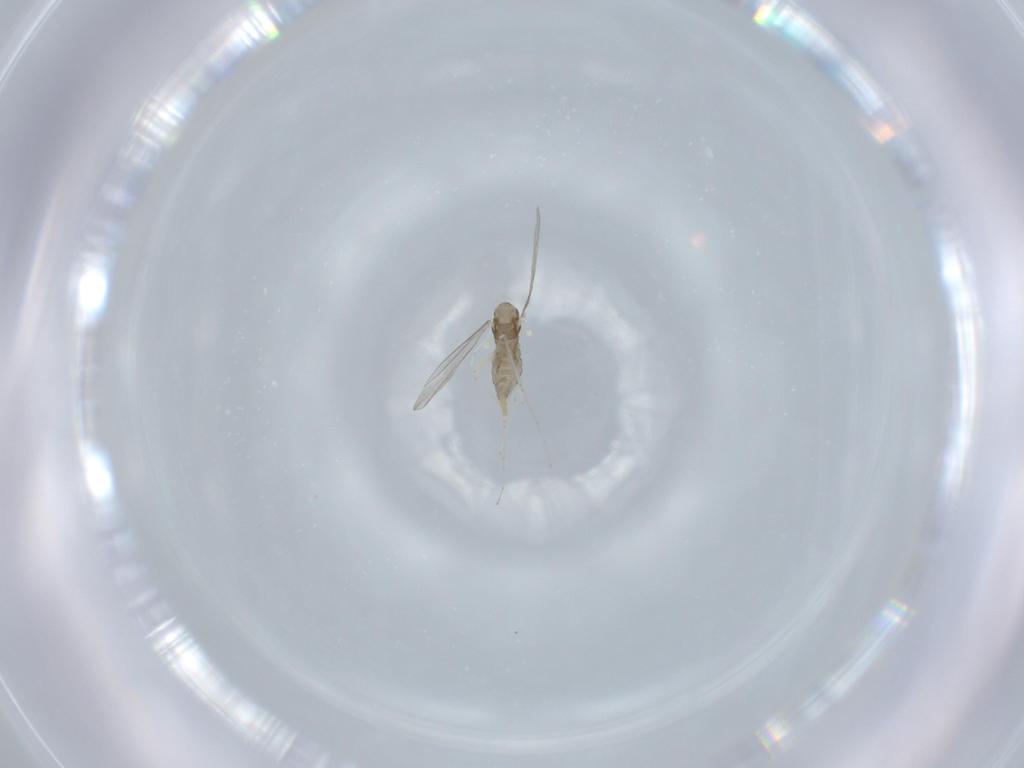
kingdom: Animalia
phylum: Arthropoda
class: Insecta
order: Diptera
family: Cecidomyiidae
